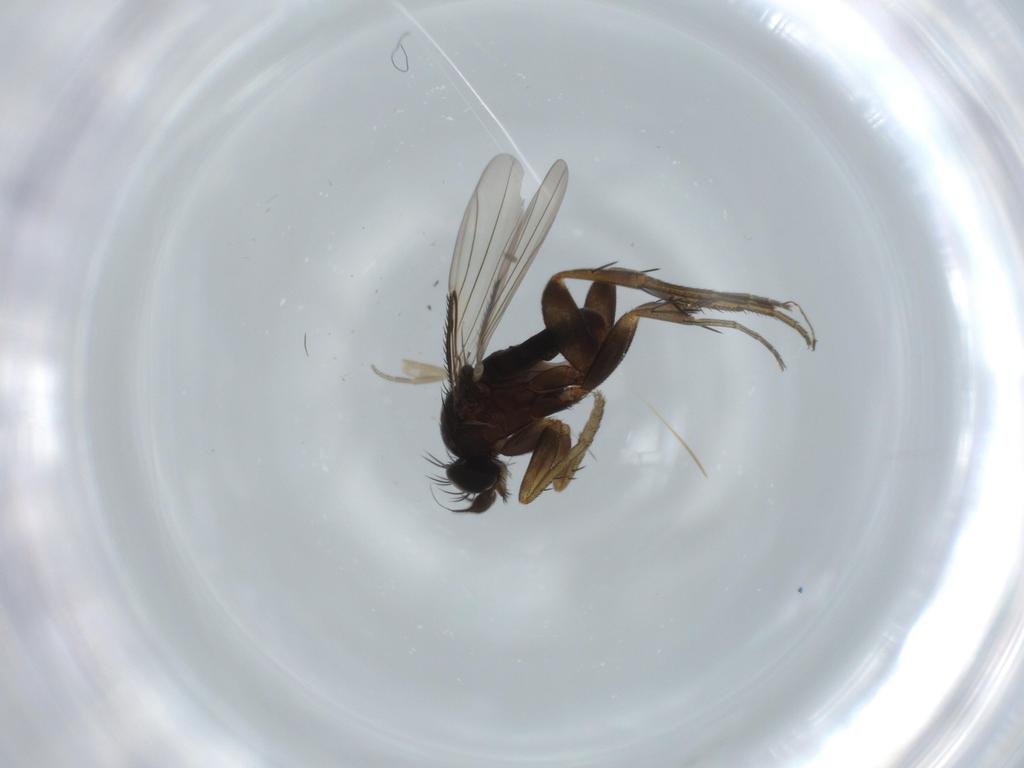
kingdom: Animalia
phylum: Arthropoda
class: Insecta
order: Diptera
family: Phoridae
